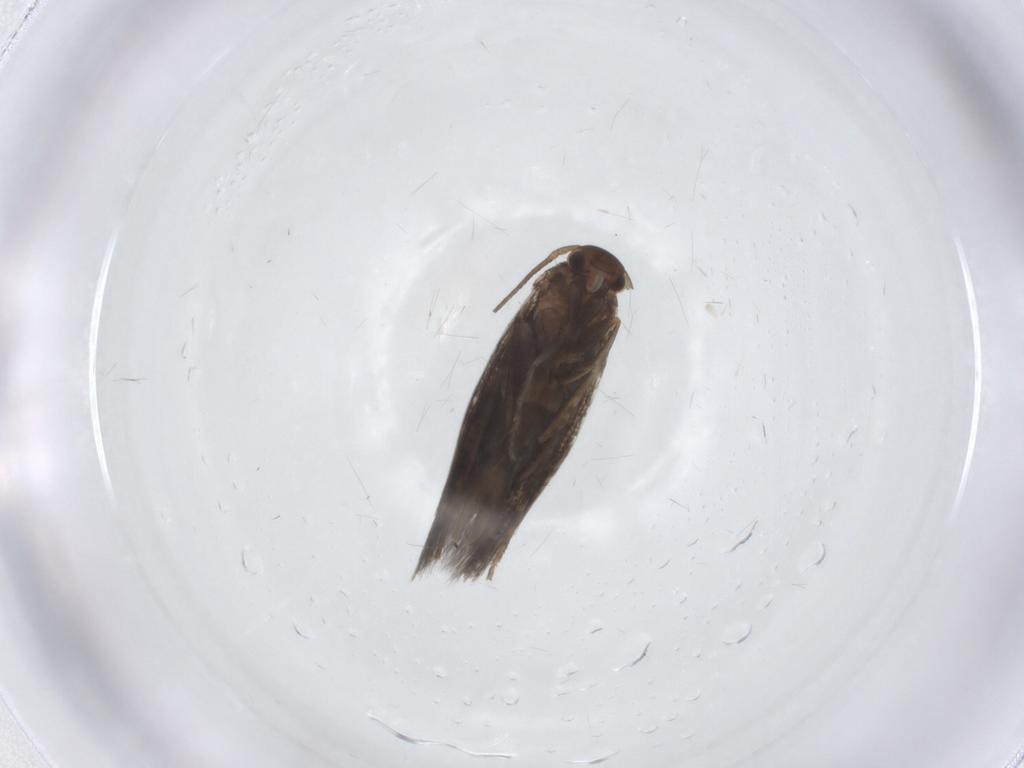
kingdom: Animalia
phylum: Arthropoda
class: Insecta
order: Lepidoptera
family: Elachistidae
